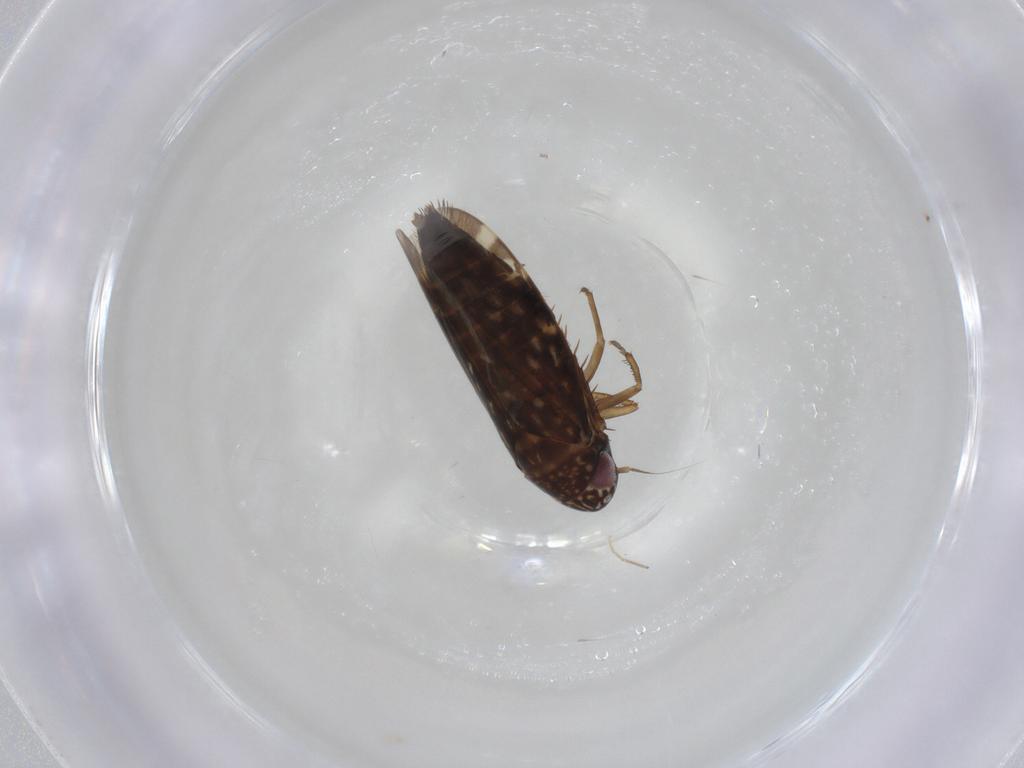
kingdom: Animalia
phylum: Arthropoda
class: Insecta
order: Hemiptera
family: Cicadellidae
